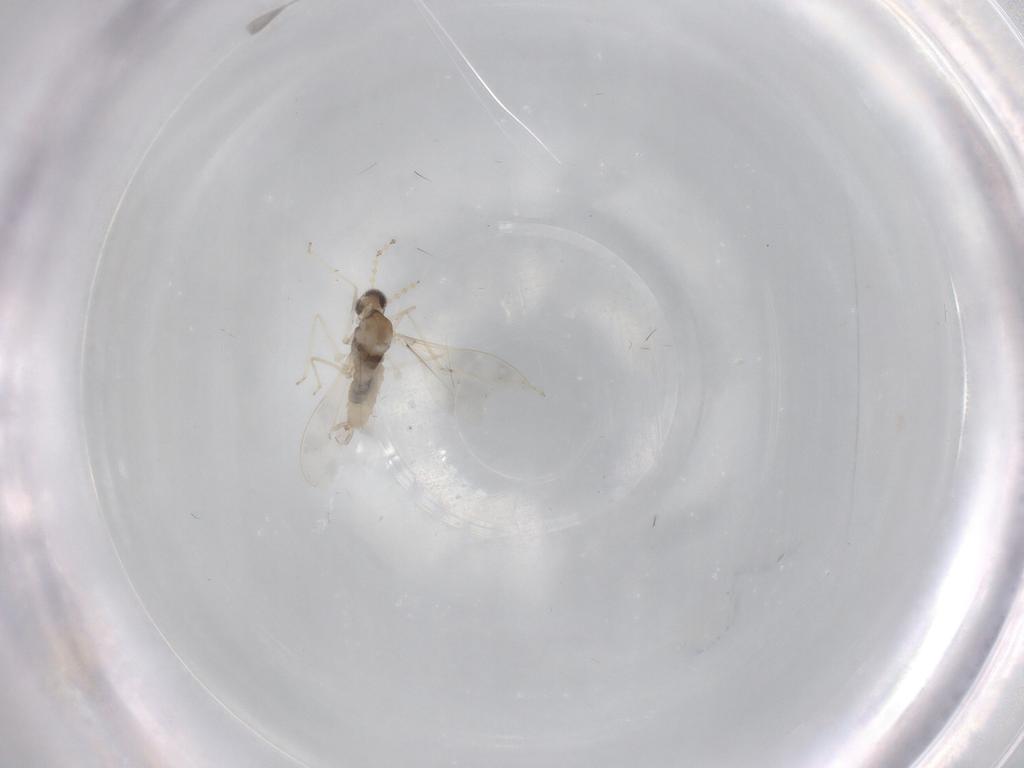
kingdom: Animalia
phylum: Arthropoda
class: Insecta
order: Diptera
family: Ceratopogonidae
